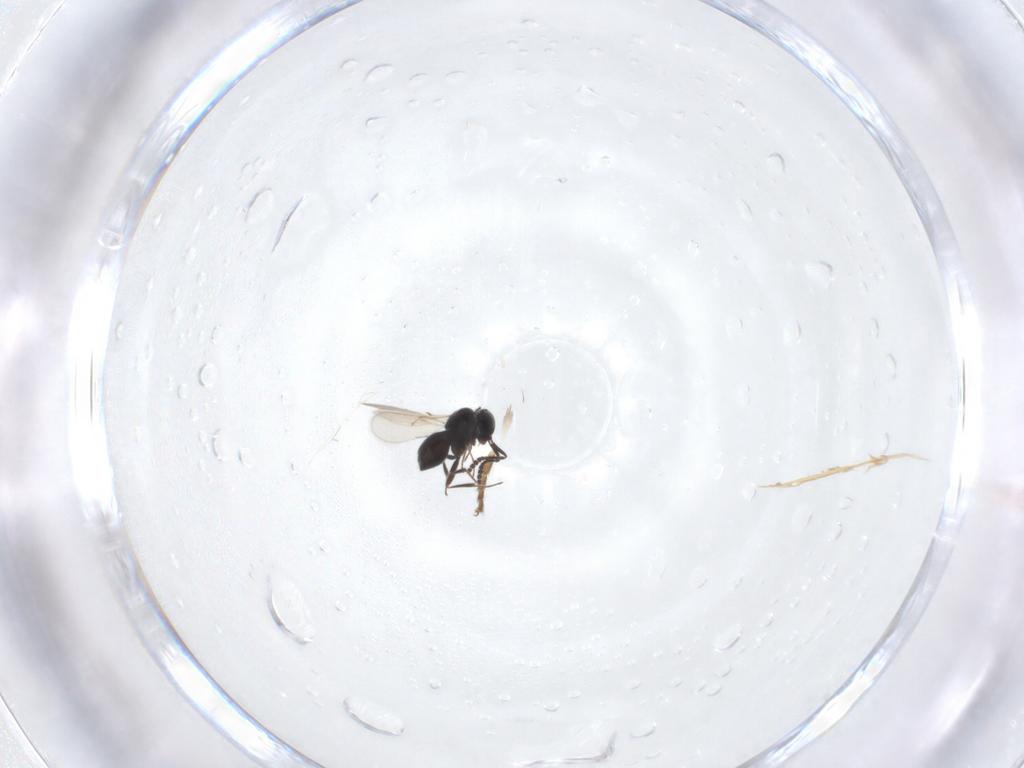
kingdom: Animalia
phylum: Arthropoda
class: Insecta
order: Hymenoptera
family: Scelionidae
